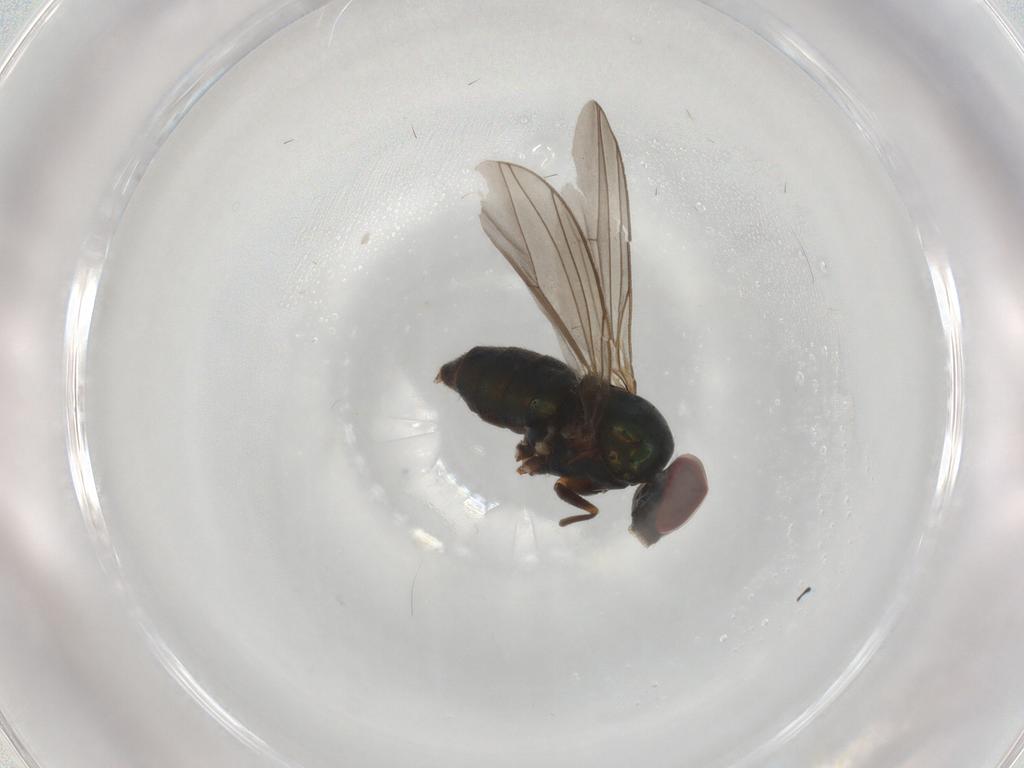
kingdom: Animalia
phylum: Arthropoda
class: Insecta
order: Diptera
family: Dolichopodidae
